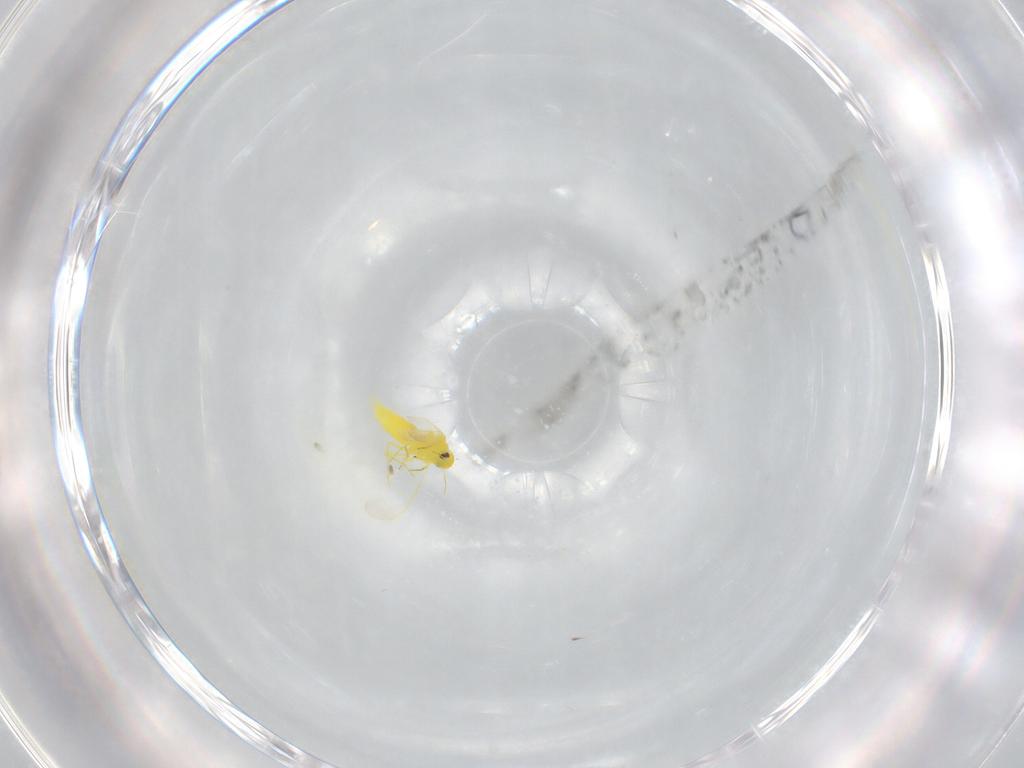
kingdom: Animalia
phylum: Arthropoda
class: Insecta
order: Hemiptera
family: Aleyrodidae
